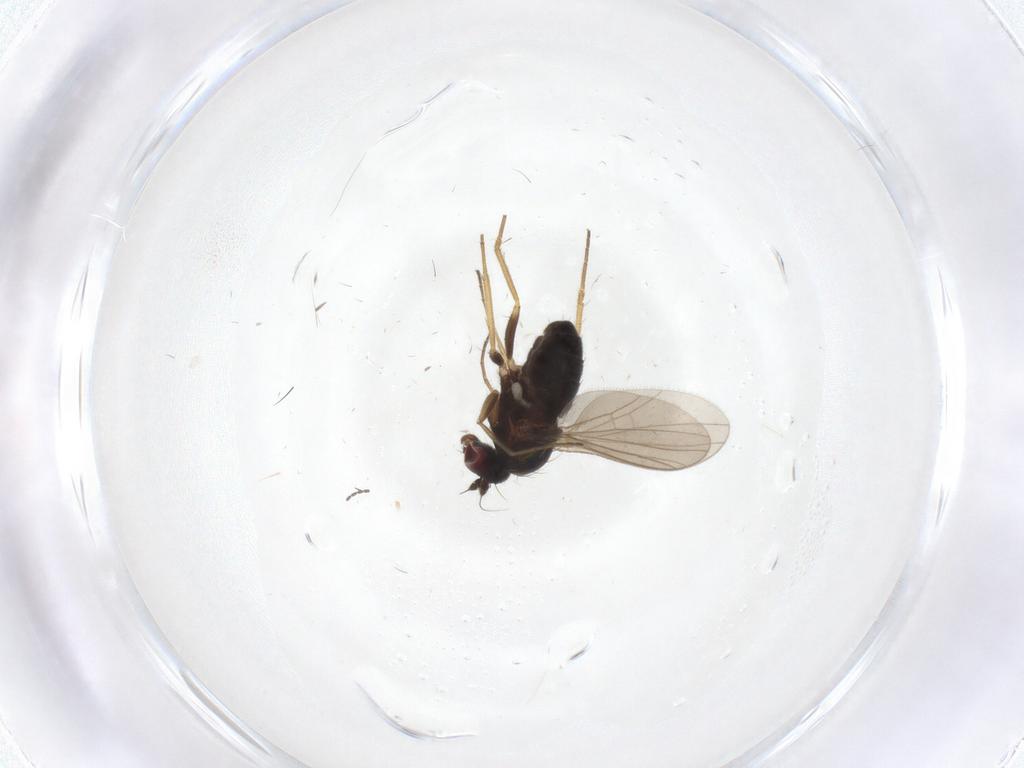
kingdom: Animalia
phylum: Arthropoda
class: Insecta
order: Diptera
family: Cecidomyiidae
